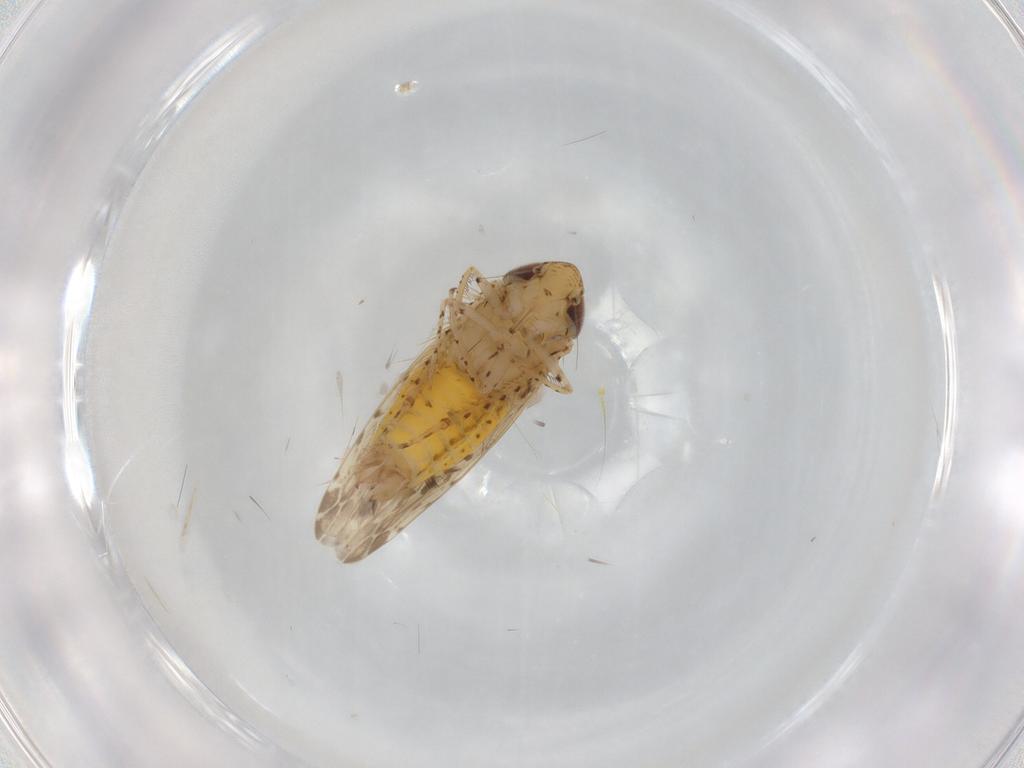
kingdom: Animalia
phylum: Arthropoda
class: Insecta
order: Hemiptera
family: Cicadellidae
